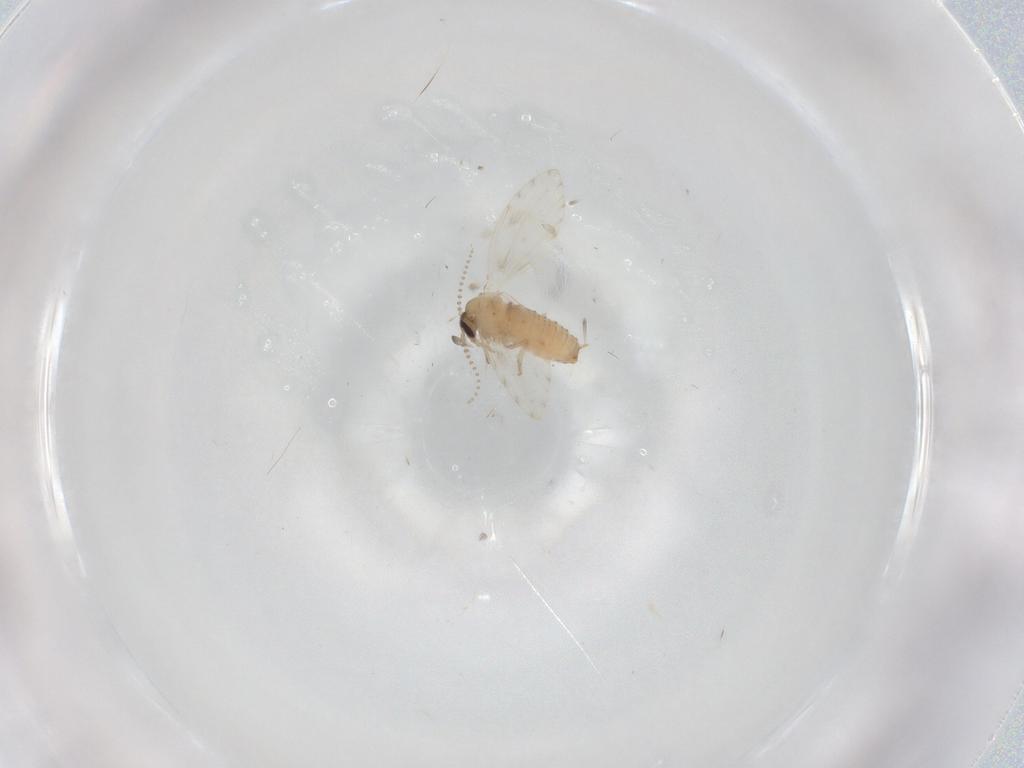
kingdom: Animalia
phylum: Arthropoda
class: Insecta
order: Diptera
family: Psychodidae
